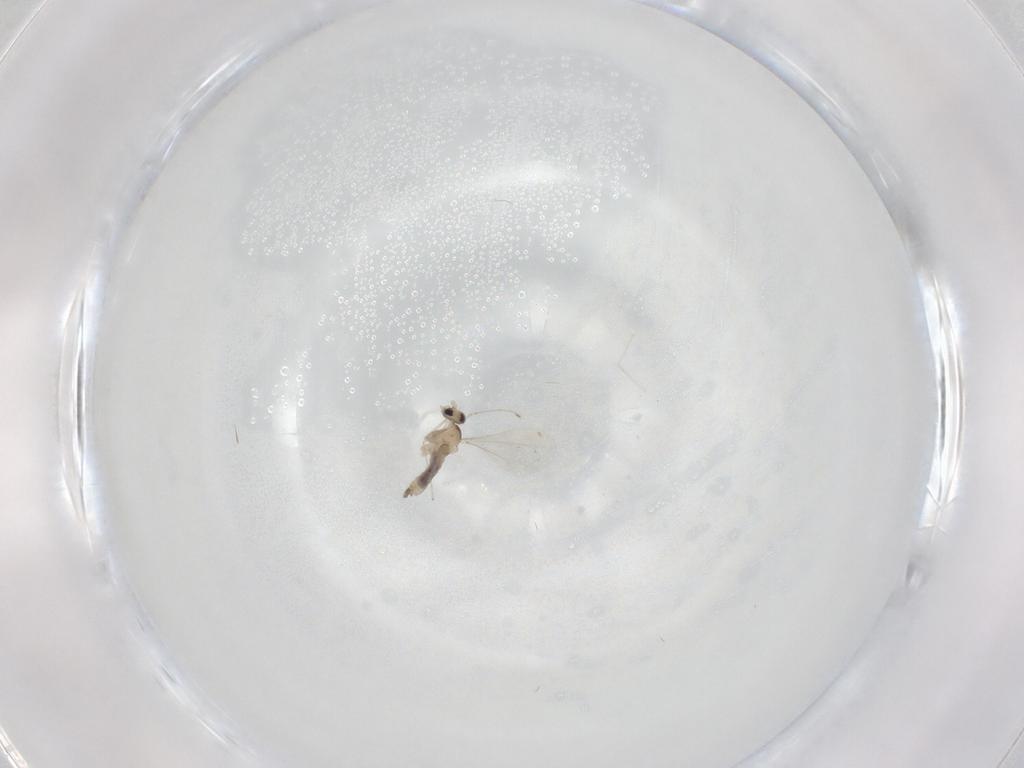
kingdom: Animalia
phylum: Arthropoda
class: Insecta
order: Diptera
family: Cecidomyiidae
